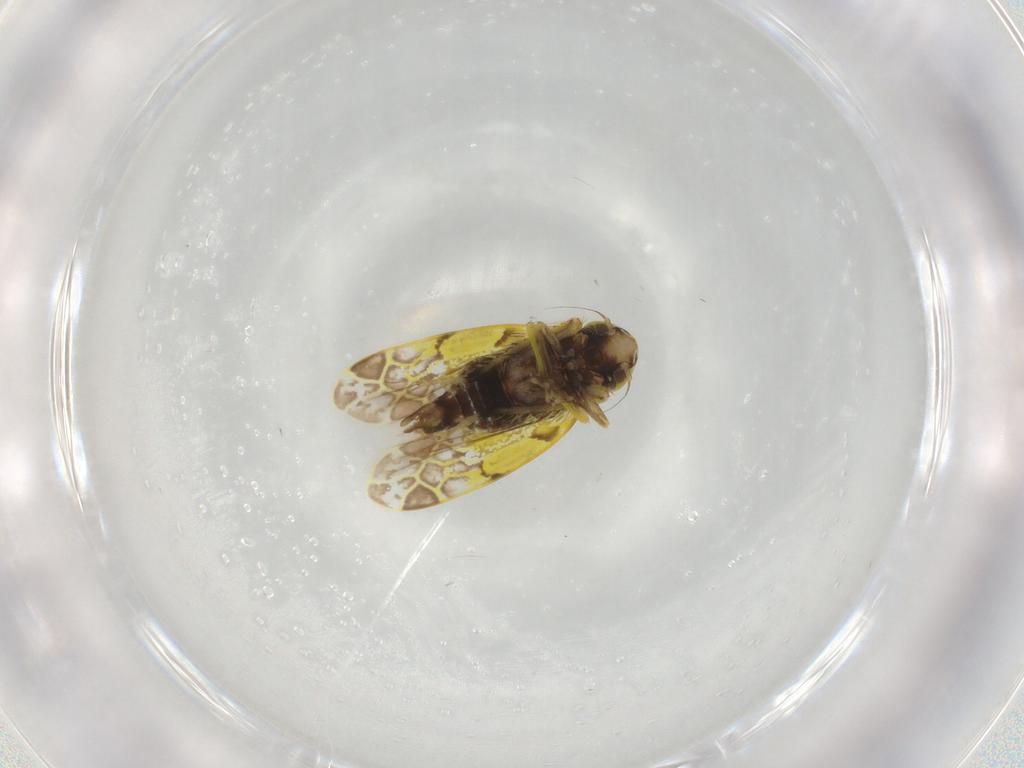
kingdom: Animalia
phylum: Arthropoda
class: Insecta
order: Hemiptera
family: Cicadellidae
